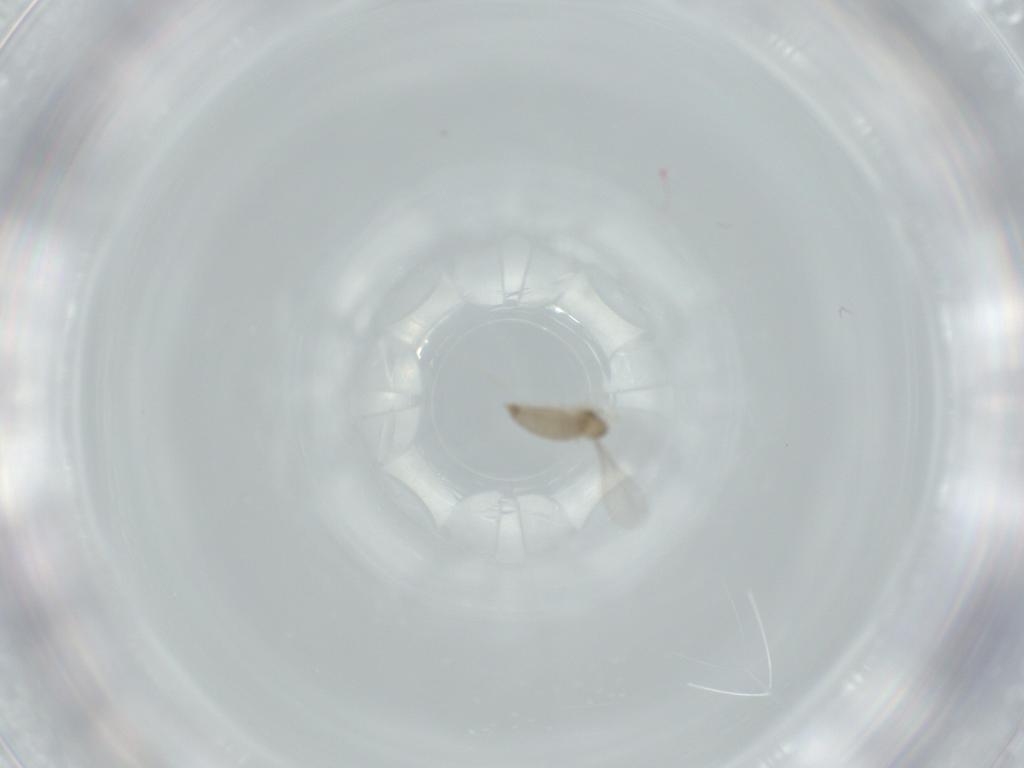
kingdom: Animalia
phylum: Arthropoda
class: Insecta
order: Diptera
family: Cecidomyiidae
